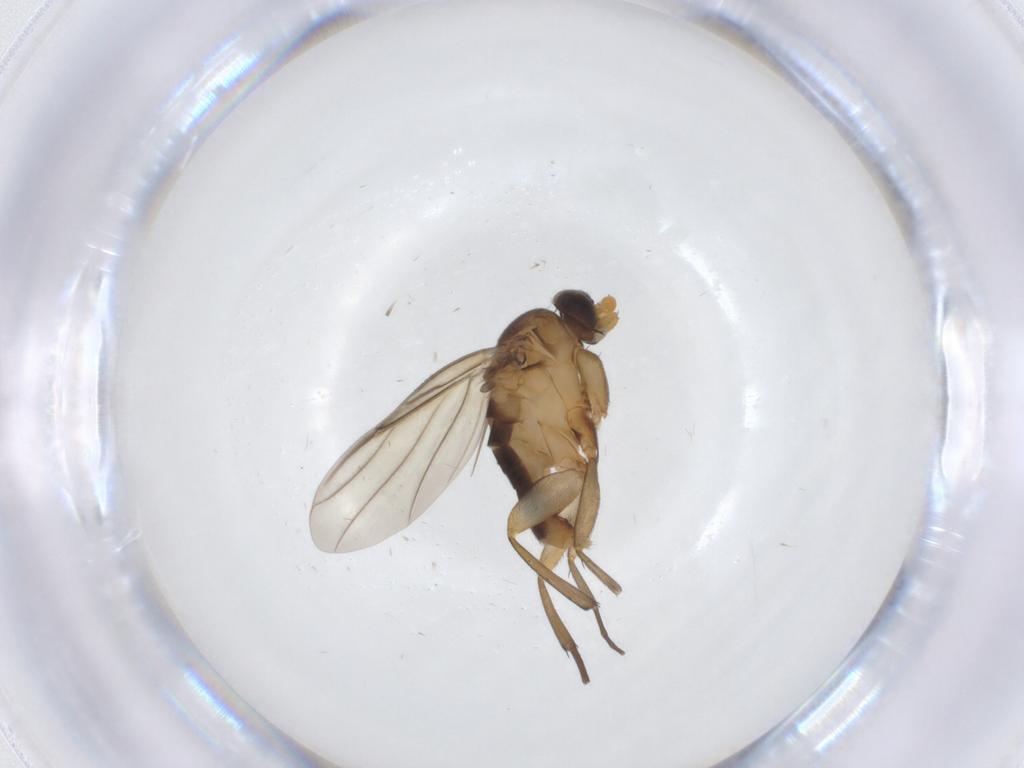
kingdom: Animalia
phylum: Arthropoda
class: Insecta
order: Diptera
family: Phoridae
